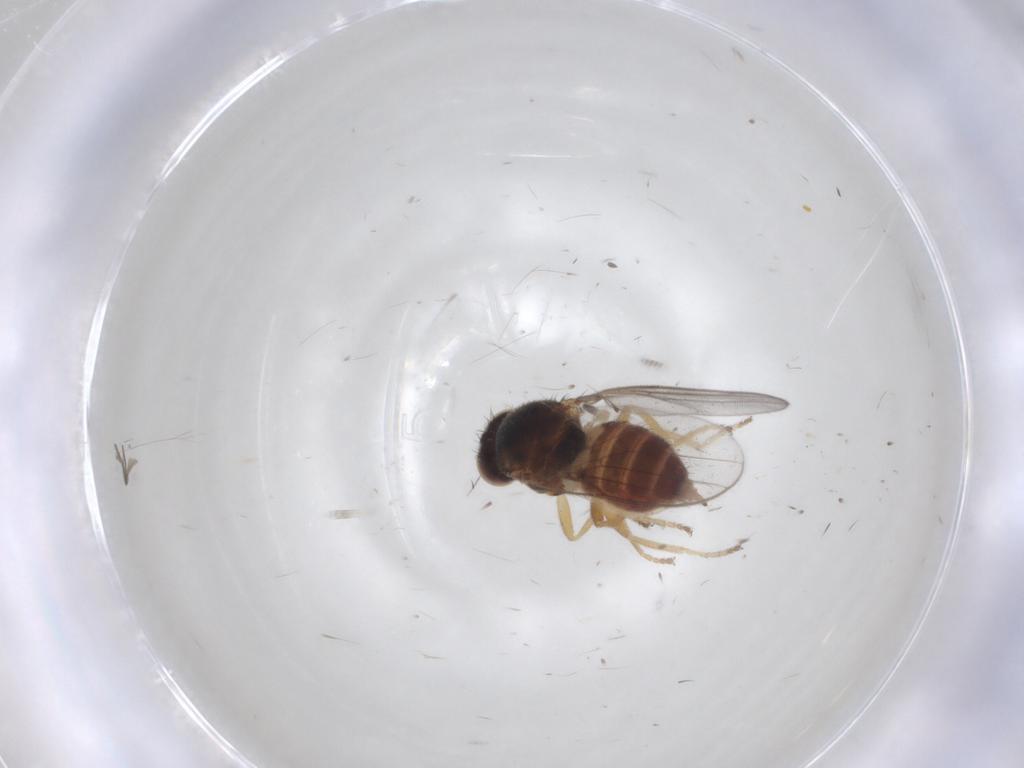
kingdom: Animalia
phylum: Arthropoda
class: Insecta
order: Diptera
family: Chloropidae
